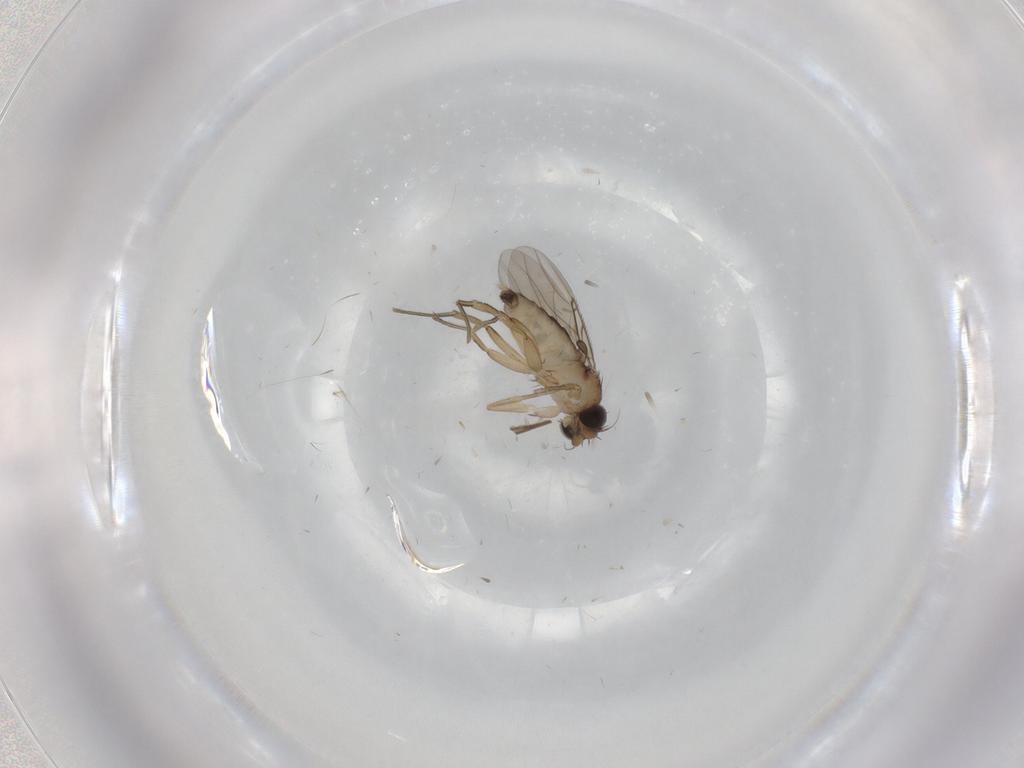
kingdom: Animalia
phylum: Arthropoda
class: Insecta
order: Diptera
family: Phoridae
